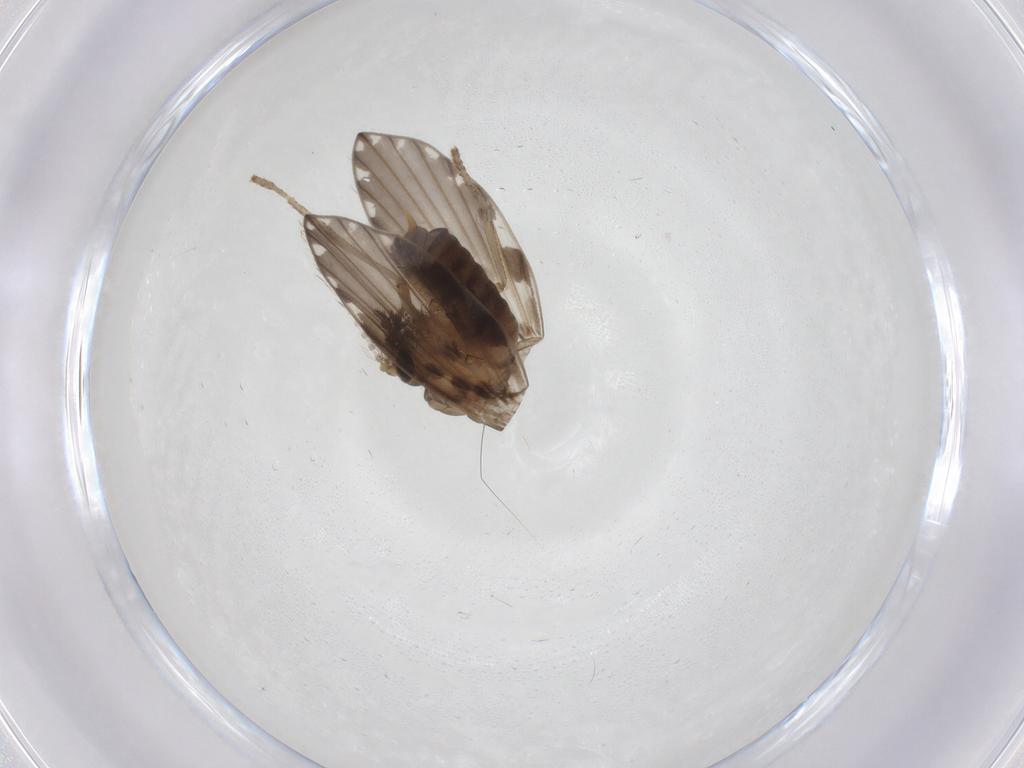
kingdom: Animalia
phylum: Arthropoda
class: Insecta
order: Diptera
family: Psychodidae
